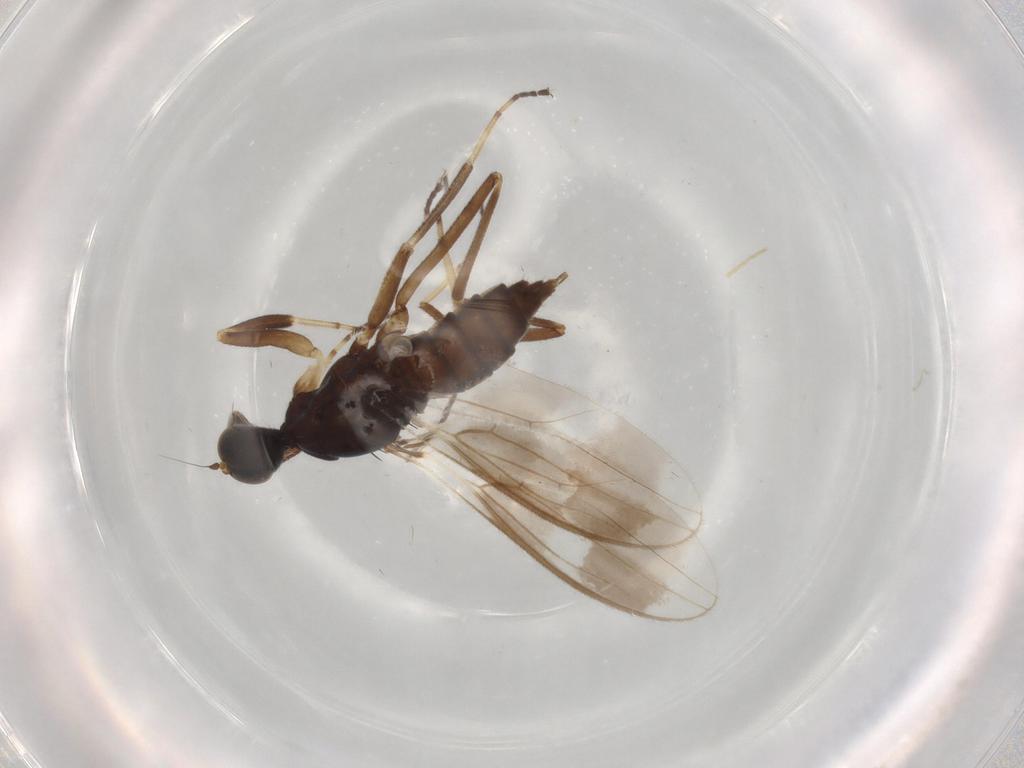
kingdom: Animalia
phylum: Arthropoda
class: Insecta
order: Diptera
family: Hybotidae
